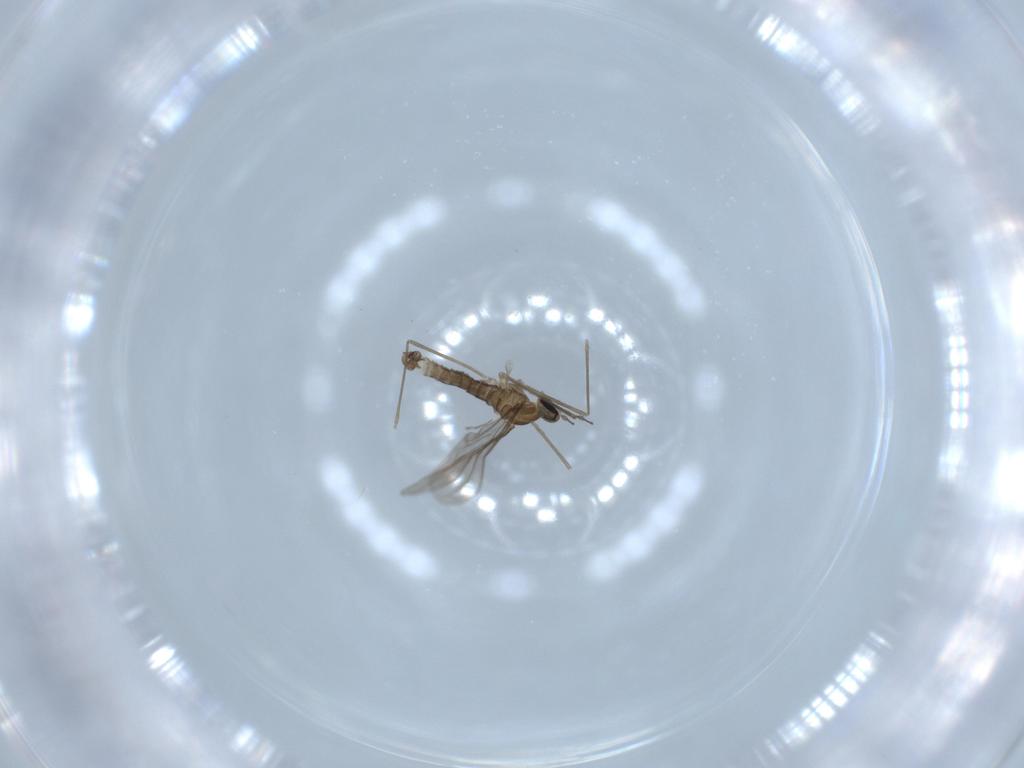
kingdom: Animalia
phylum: Arthropoda
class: Insecta
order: Diptera
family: Cecidomyiidae
